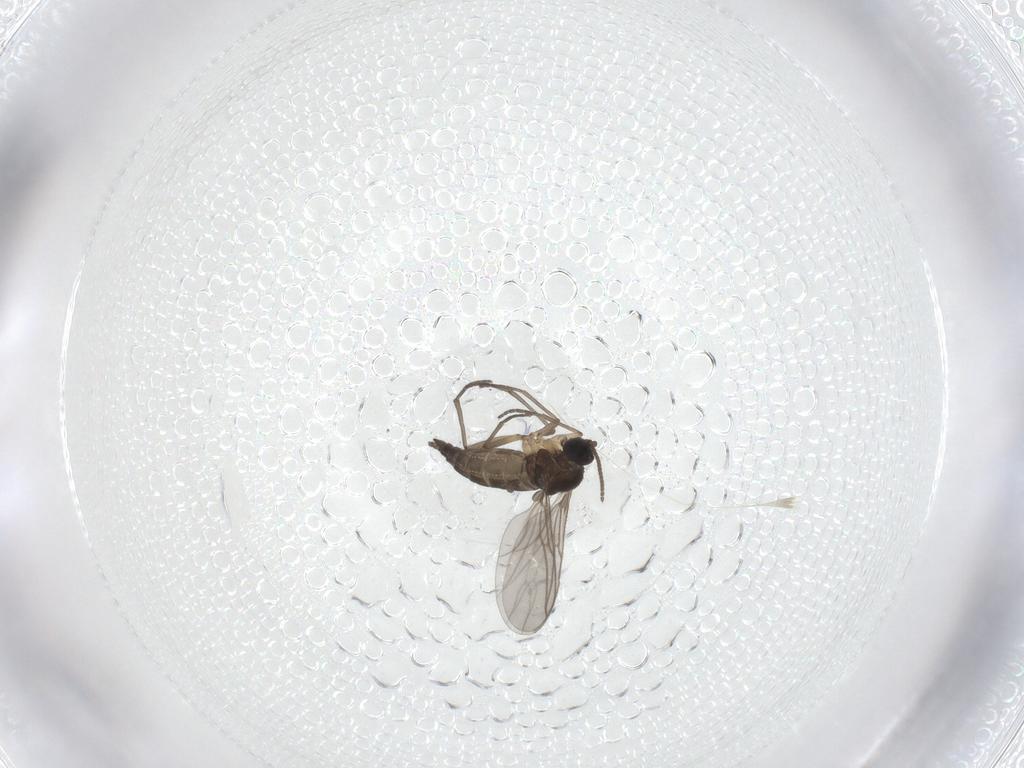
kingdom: Animalia
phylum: Arthropoda
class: Insecta
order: Diptera
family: Sciaridae
